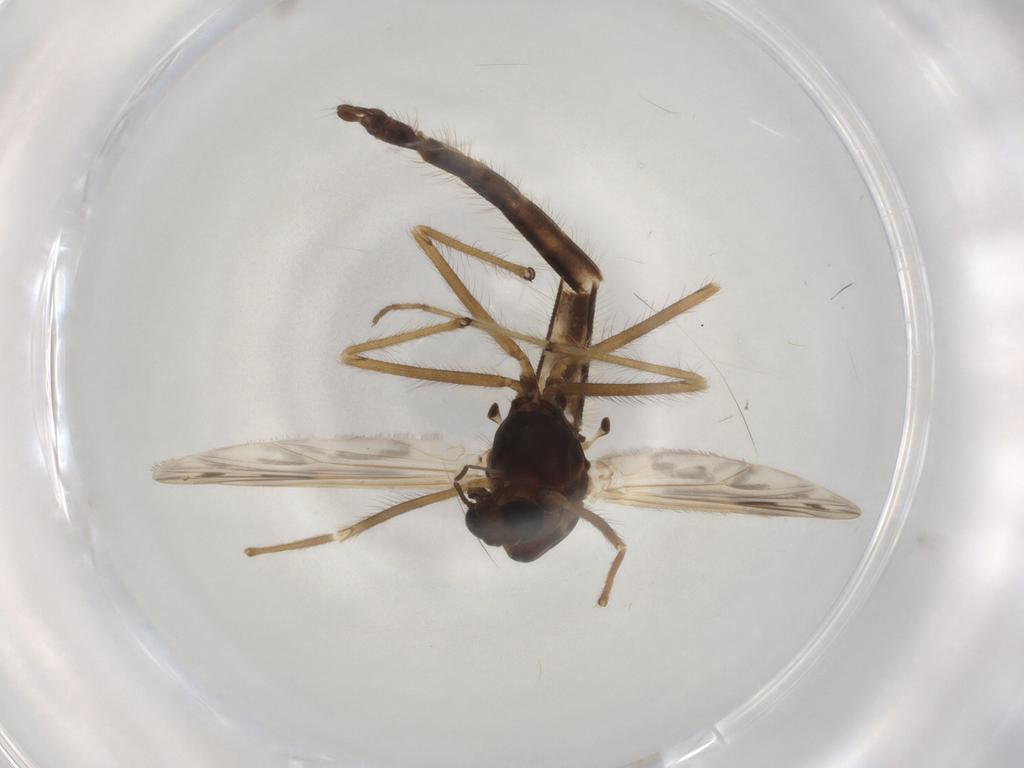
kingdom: Animalia
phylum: Arthropoda
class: Insecta
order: Diptera
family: Chironomidae
